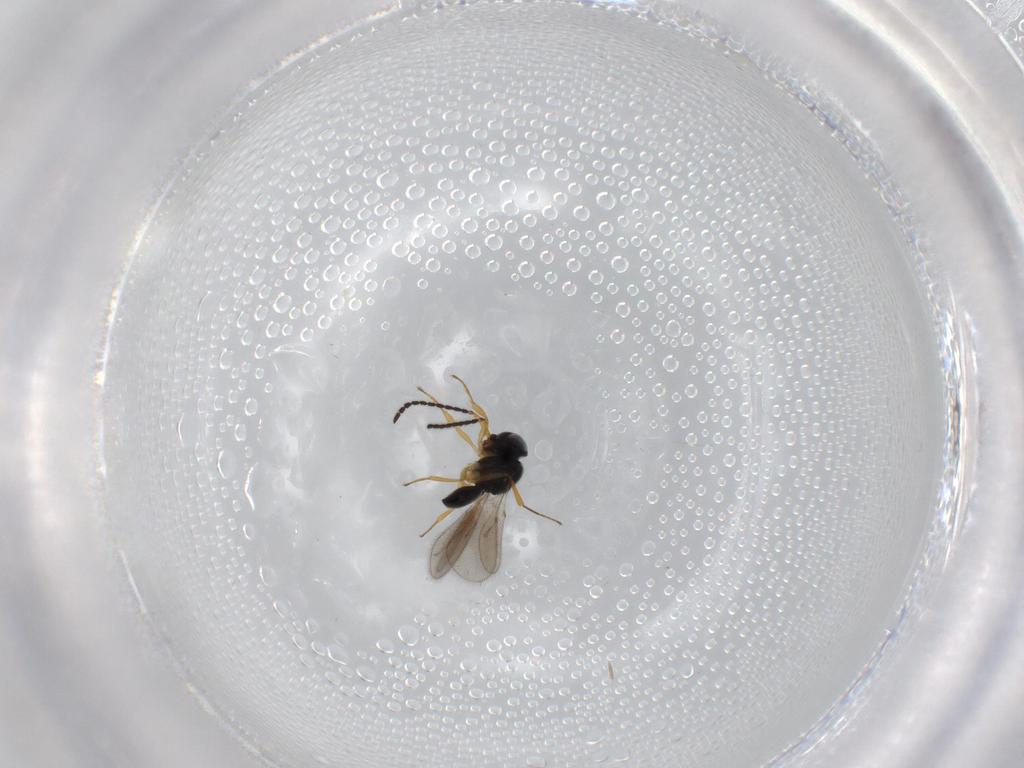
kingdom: Animalia
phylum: Arthropoda
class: Insecta
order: Hymenoptera
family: Scelionidae
